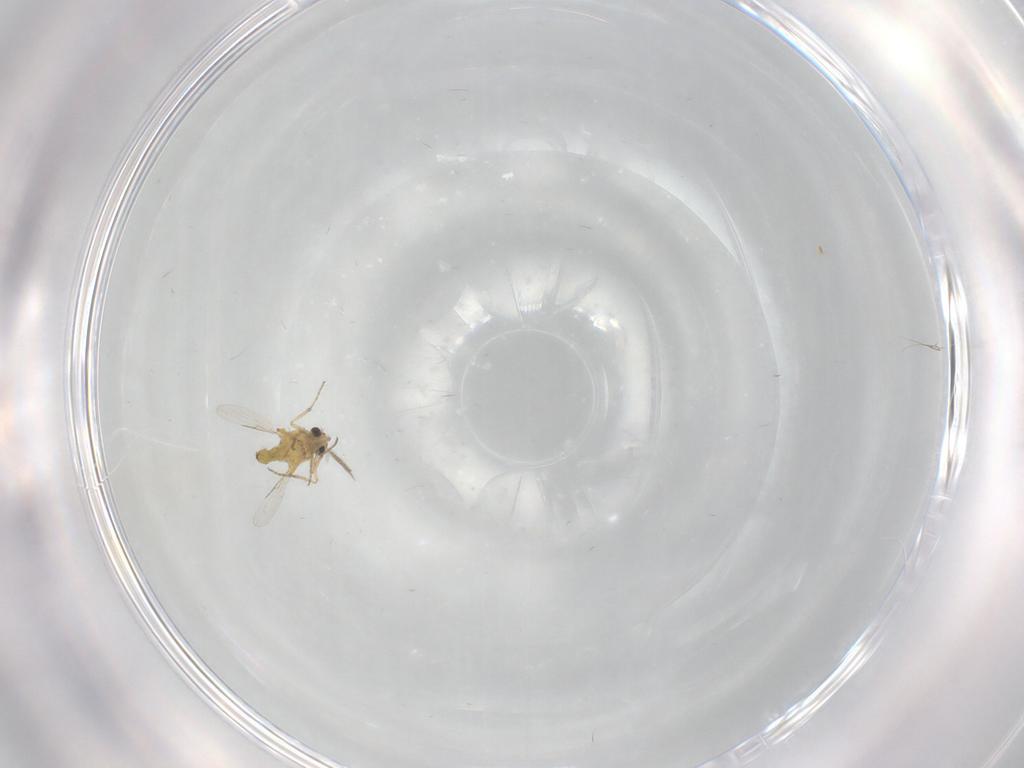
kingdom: Animalia
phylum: Arthropoda
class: Insecta
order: Diptera
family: Ceratopogonidae
